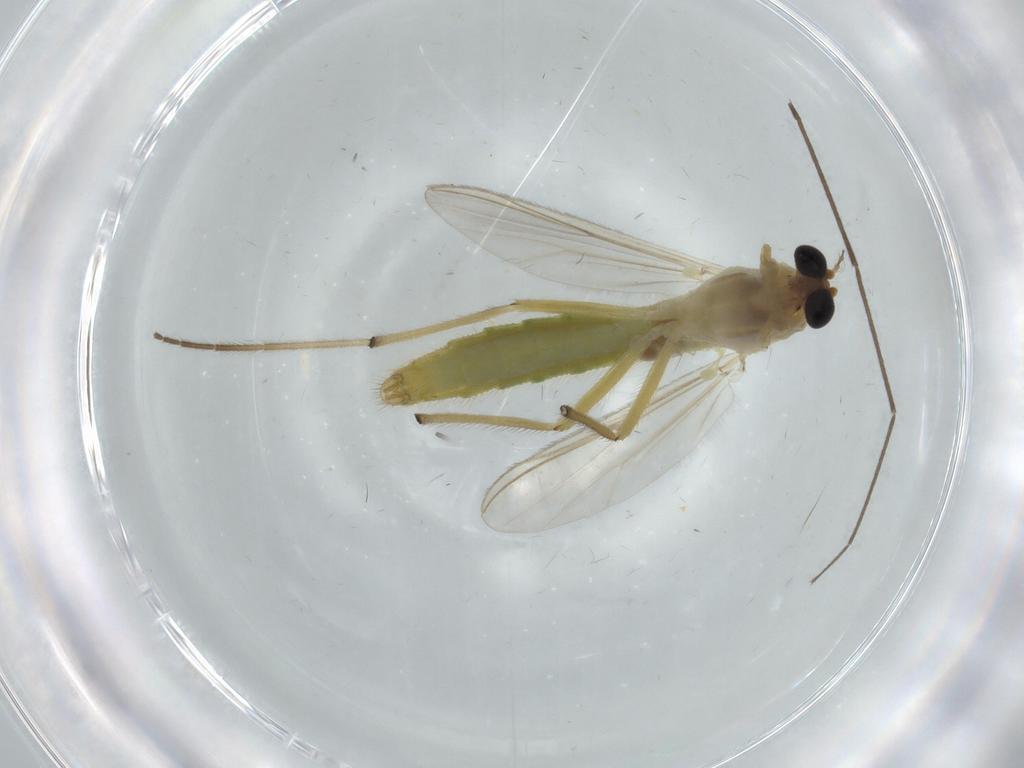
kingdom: Animalia
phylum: Arthropoda
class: Insecta
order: Diptera
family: Chironomidae
